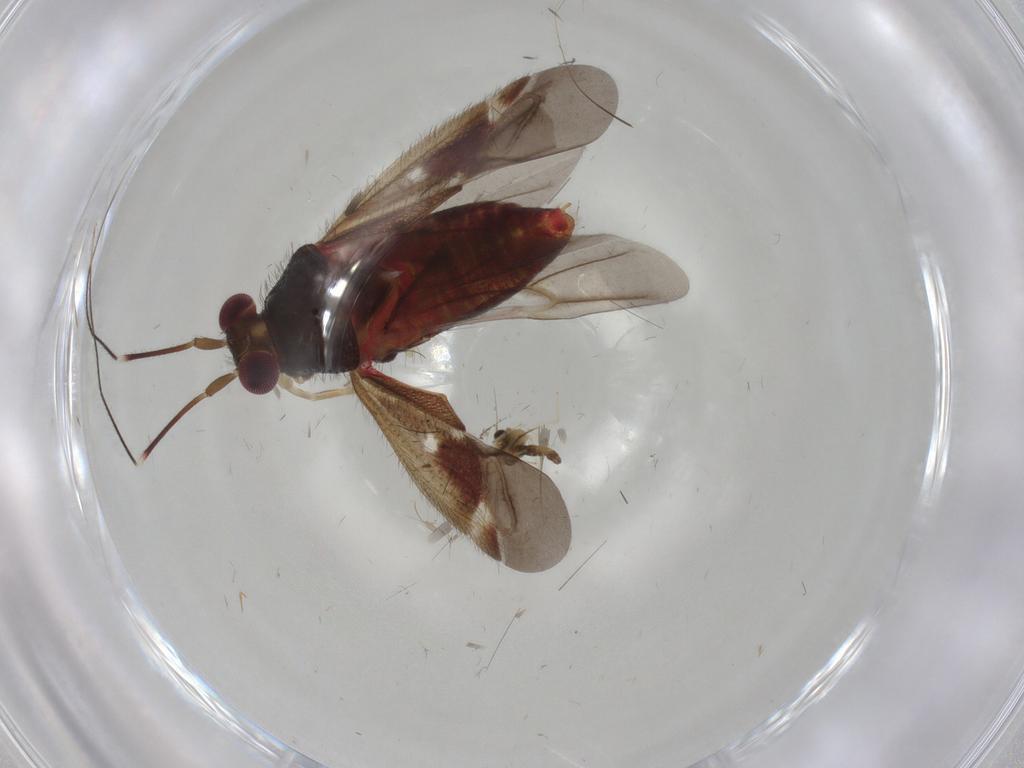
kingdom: Animalia
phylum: Arthropoda
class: Insecta
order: Hemiptera
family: Miridae
